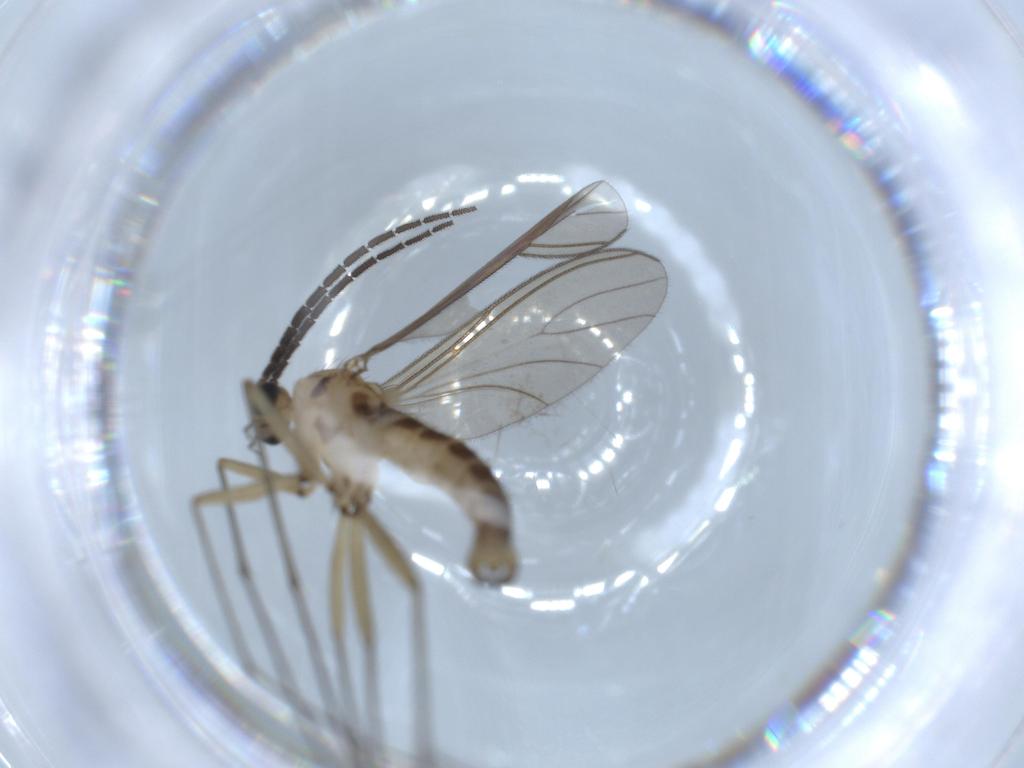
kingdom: Animalia
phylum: Arthropoda
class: Insecta
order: Diptera
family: Sciaridae
